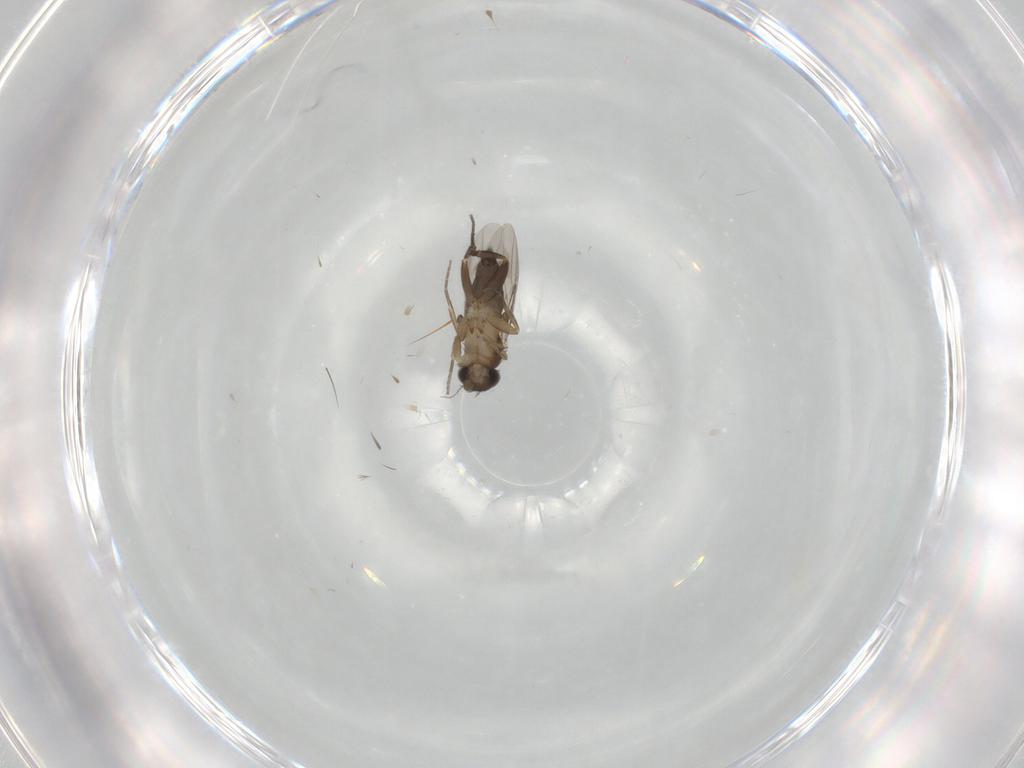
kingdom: Animalia
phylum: Arthropoda
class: Insecta
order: Diptera
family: Phoridae
